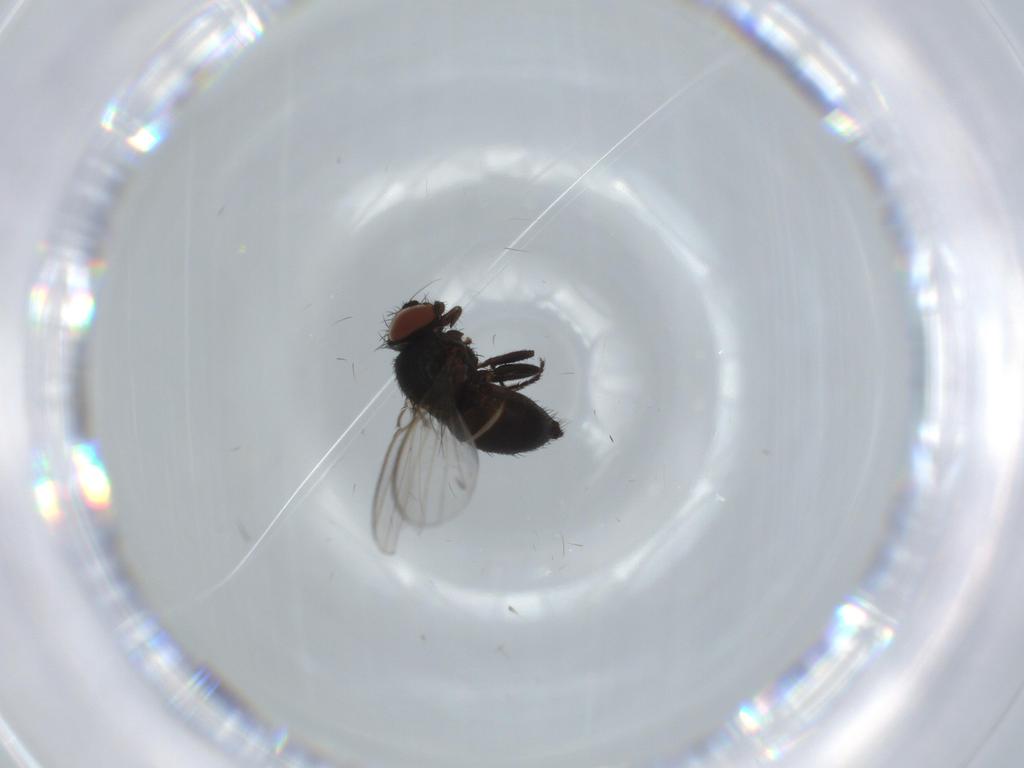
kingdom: Animalia
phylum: Arthropoda
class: Insecta
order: Diptera
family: Milichiidae
